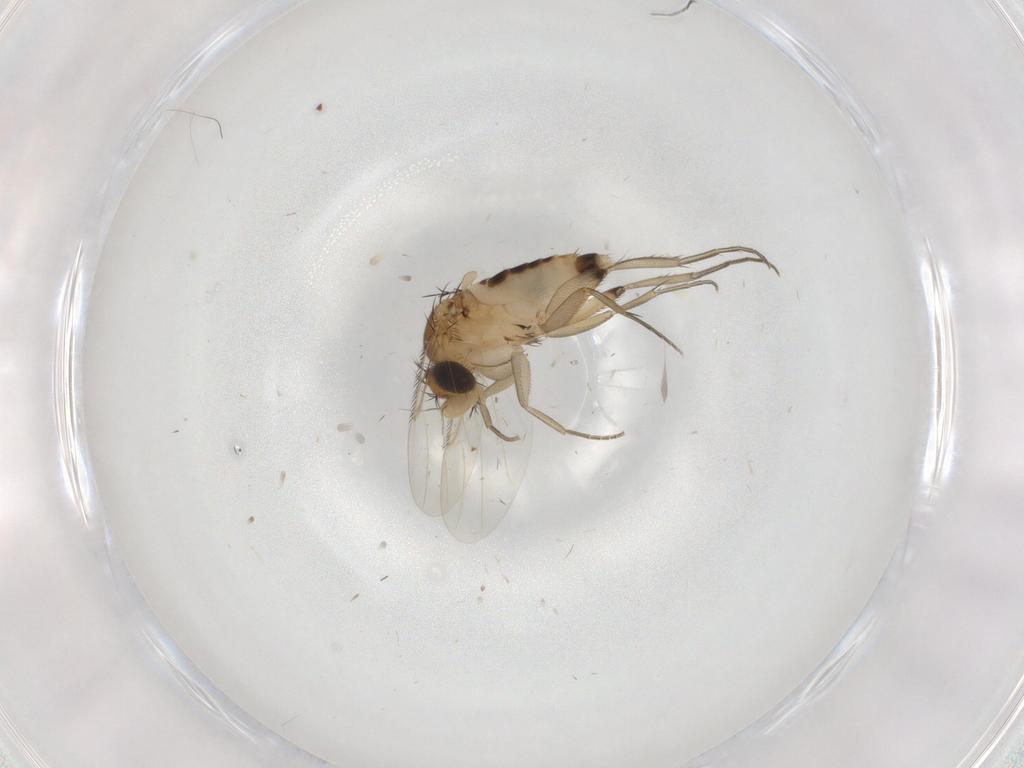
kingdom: Animalia
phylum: Arthropoda
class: Insecta
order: Diptera
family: Phoridae
